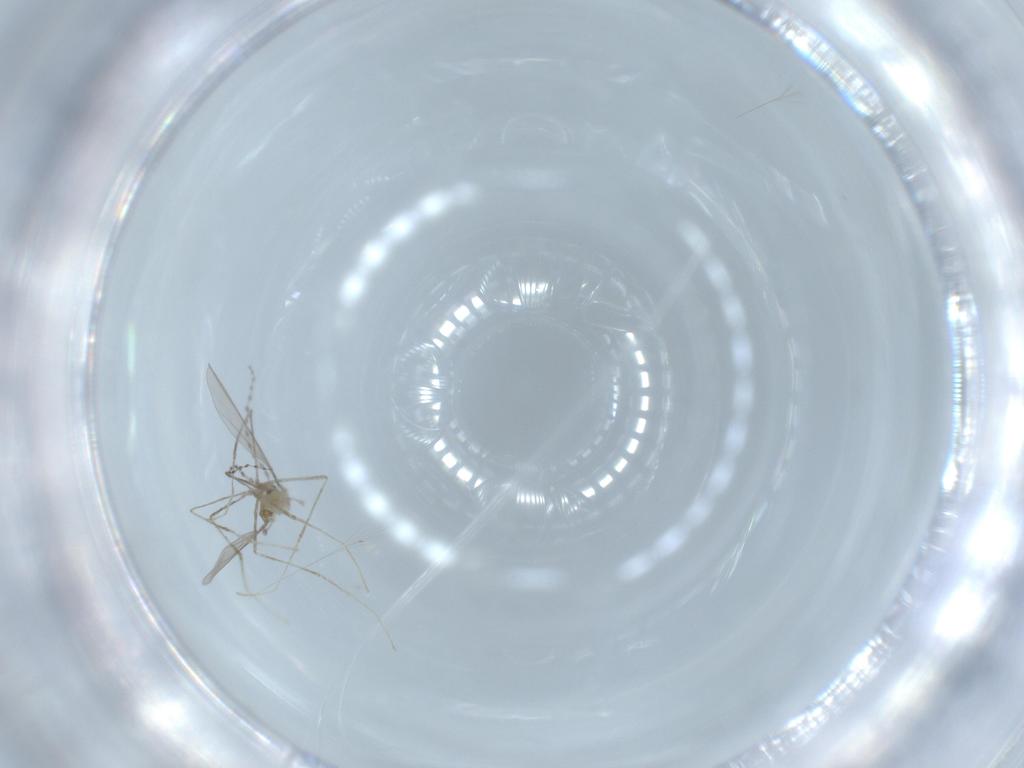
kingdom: Animalia
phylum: Arthropoda
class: Insecta
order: Diptera
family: Cecidomyiidae
